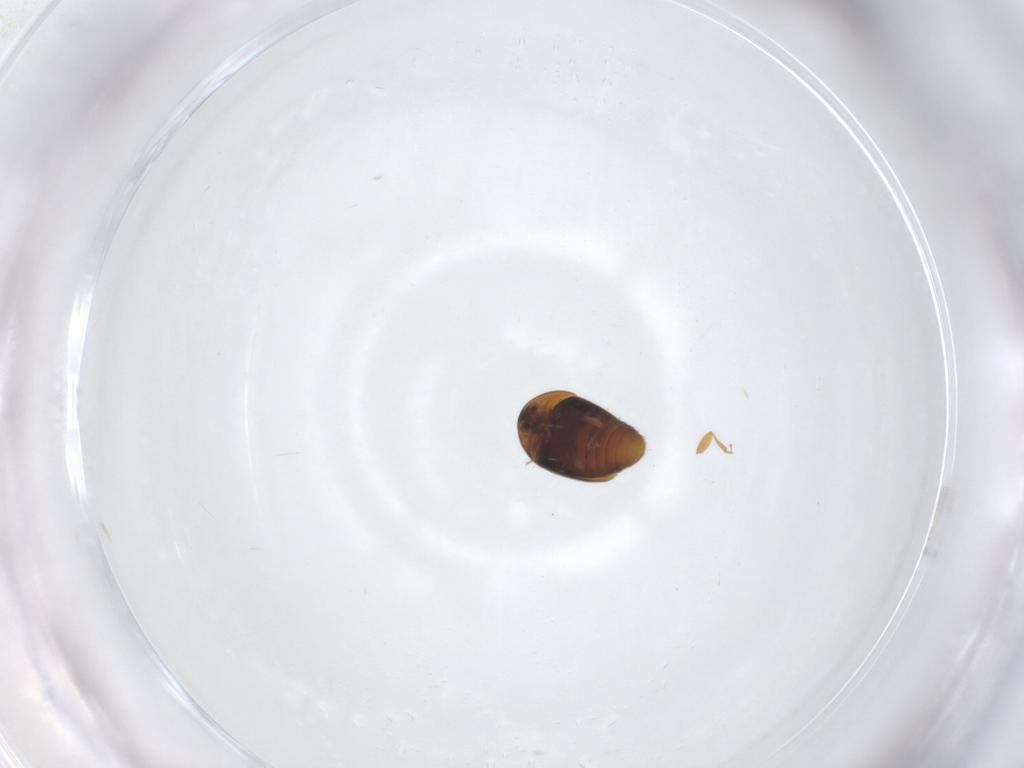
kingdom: Animalia
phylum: Arthropoda
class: Insecta
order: Coleoptera
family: Corylophidae
